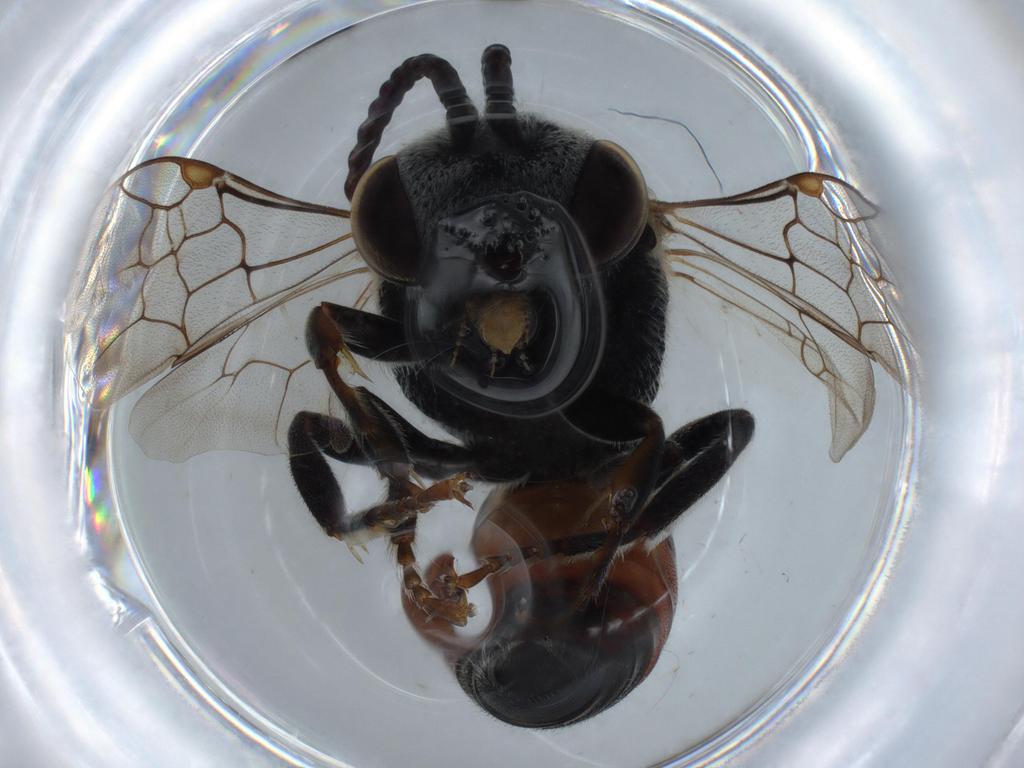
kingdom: Animalia
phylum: Arthropoda
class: Insecta
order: Hymenoptera
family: Halictidae
